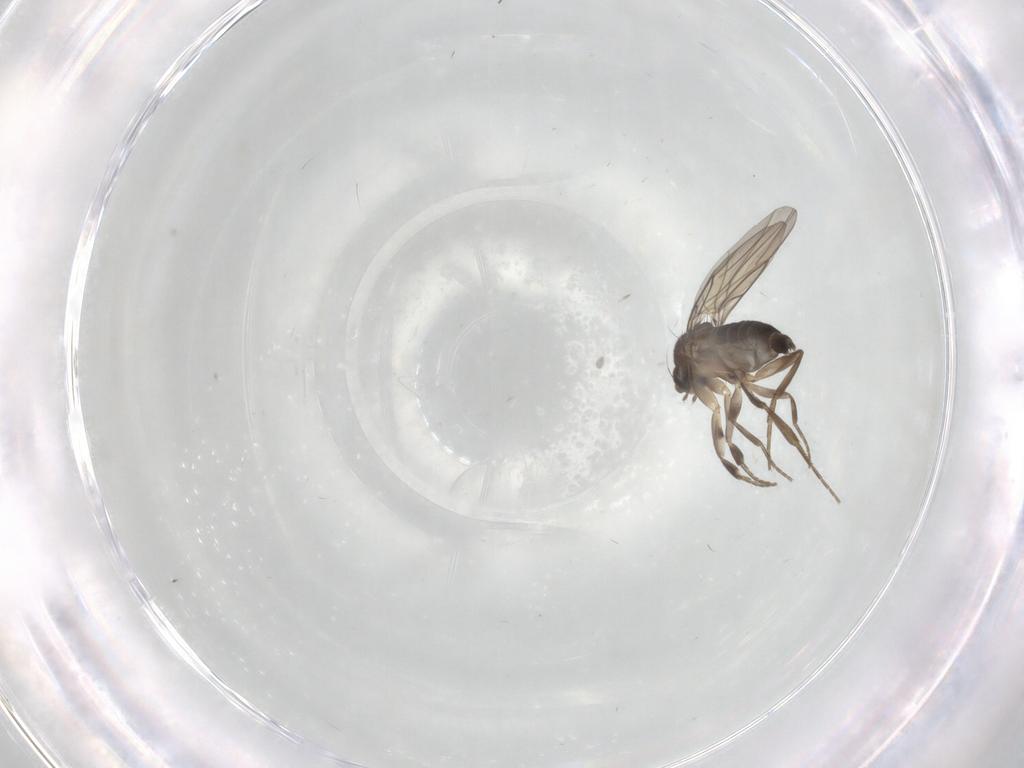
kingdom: Animalia
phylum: Arthropoda
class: Insecta
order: Diptera
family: Phoridae
